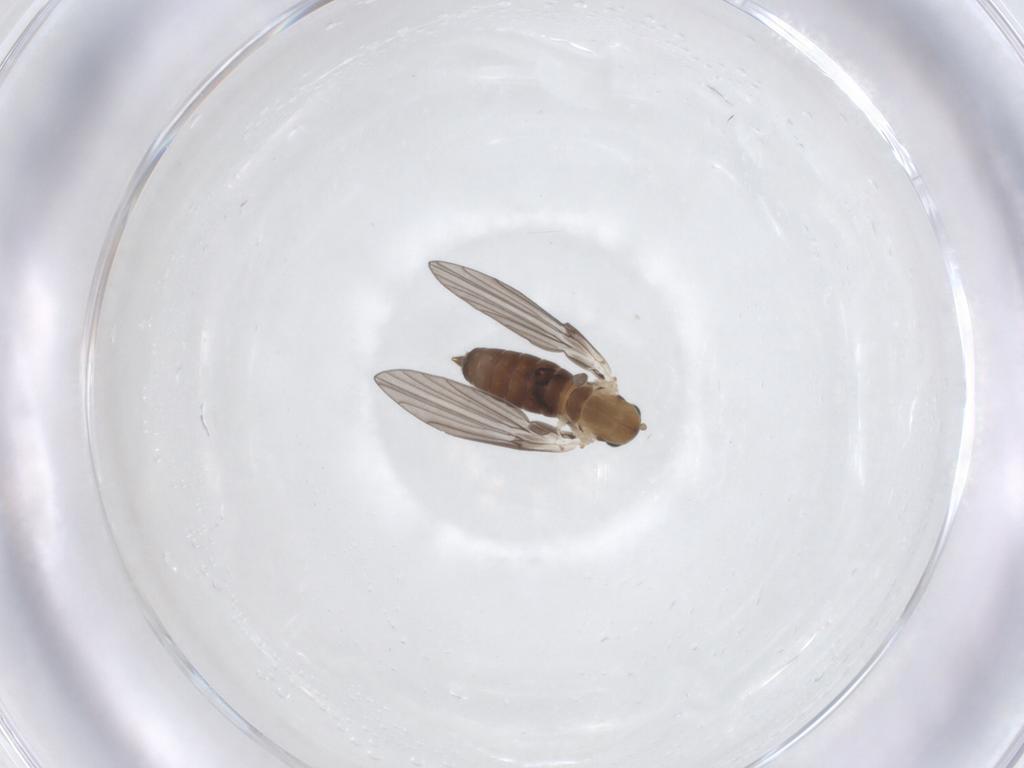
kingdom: Animalia
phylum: Arthropoda
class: Insecta
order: Diptera
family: Psychodidae
